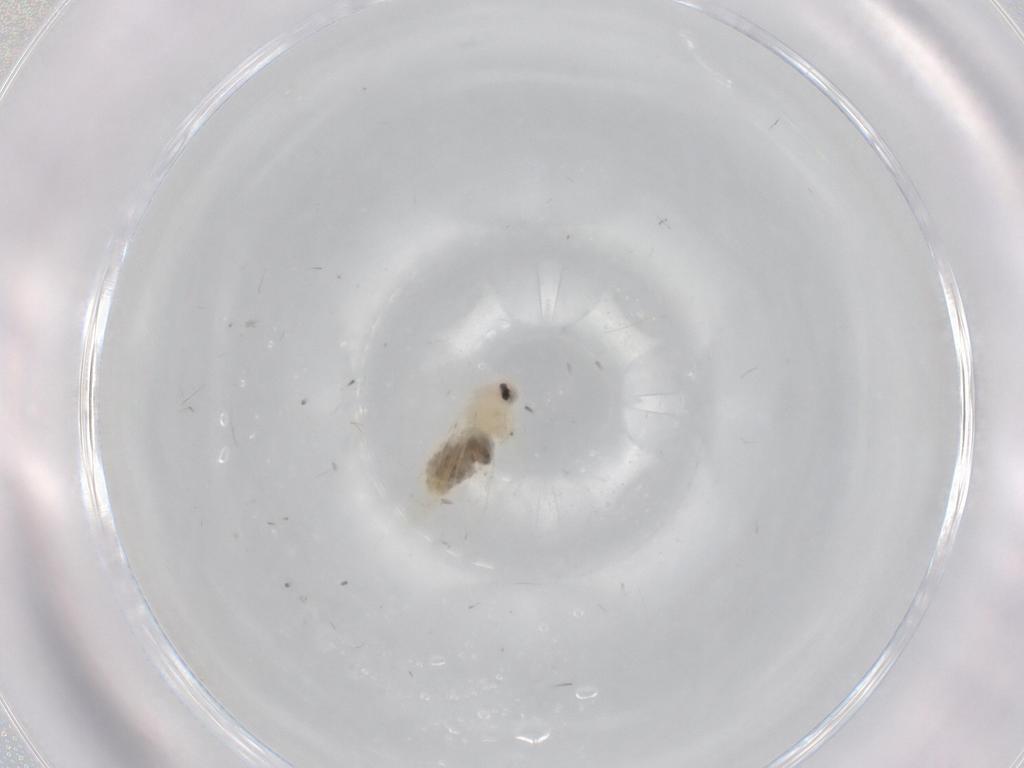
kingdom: Animalia
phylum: Arthropoda
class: Insecta
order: Hemiptera
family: Aleyrodidae
